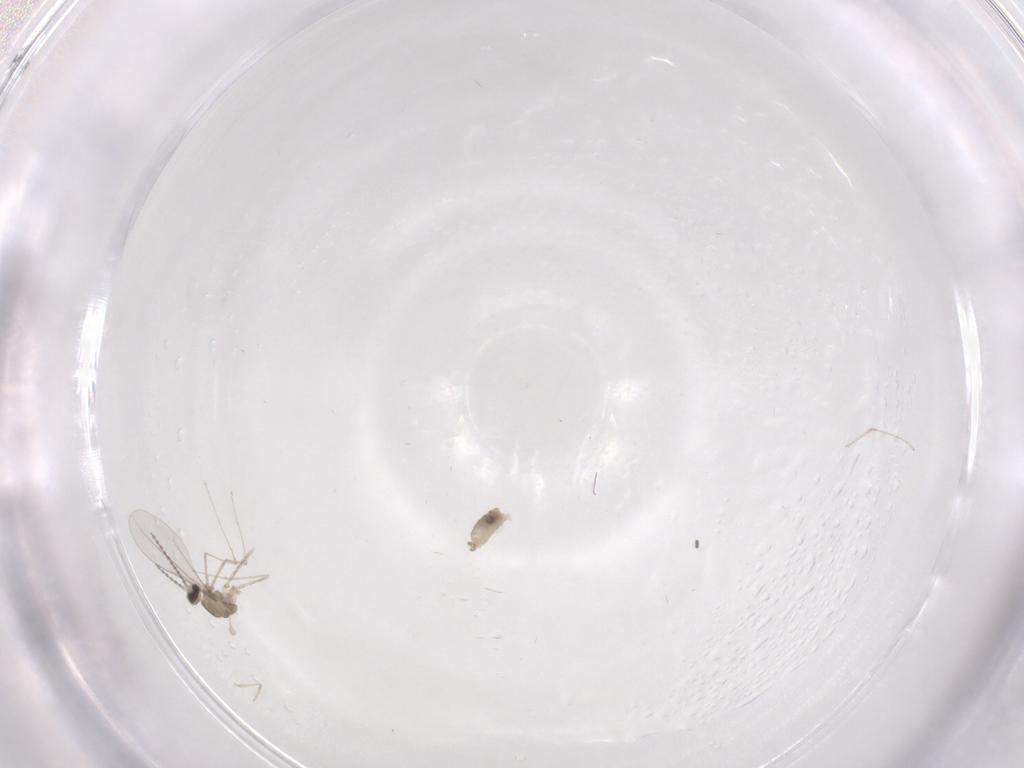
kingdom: Animalia
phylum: Arthropoda
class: Insecta
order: Diptera
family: Cecidomyiidae
